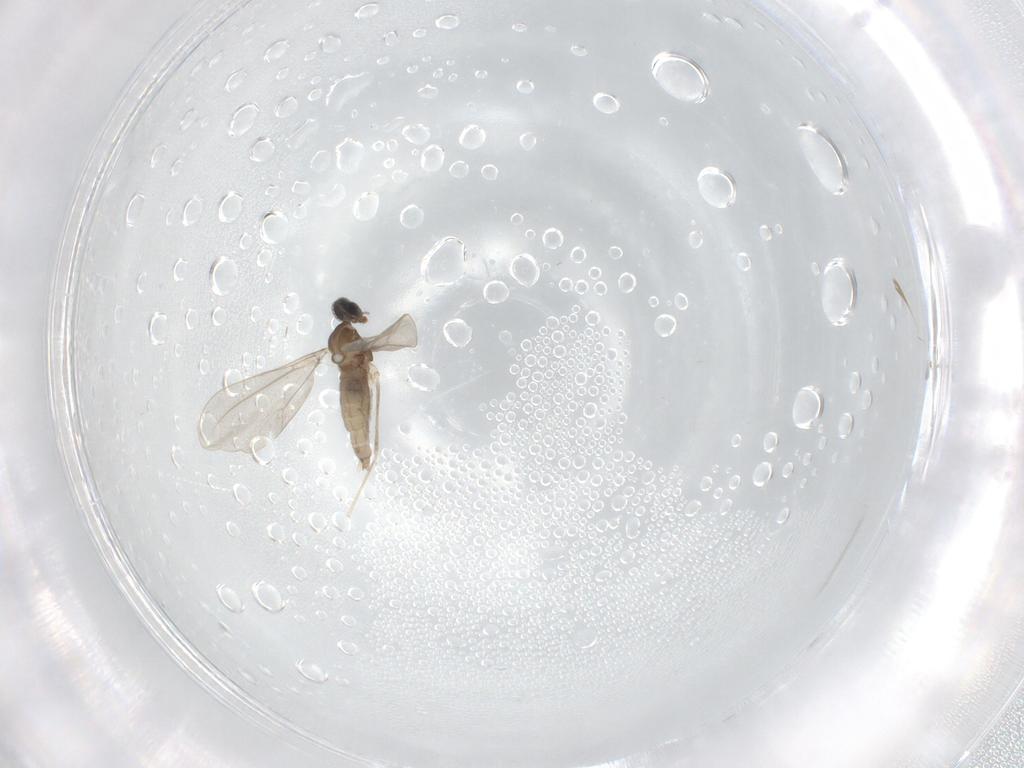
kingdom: Animalia
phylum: Arthropoda
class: Insecta
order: Diptera
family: Cecidomyiidae
